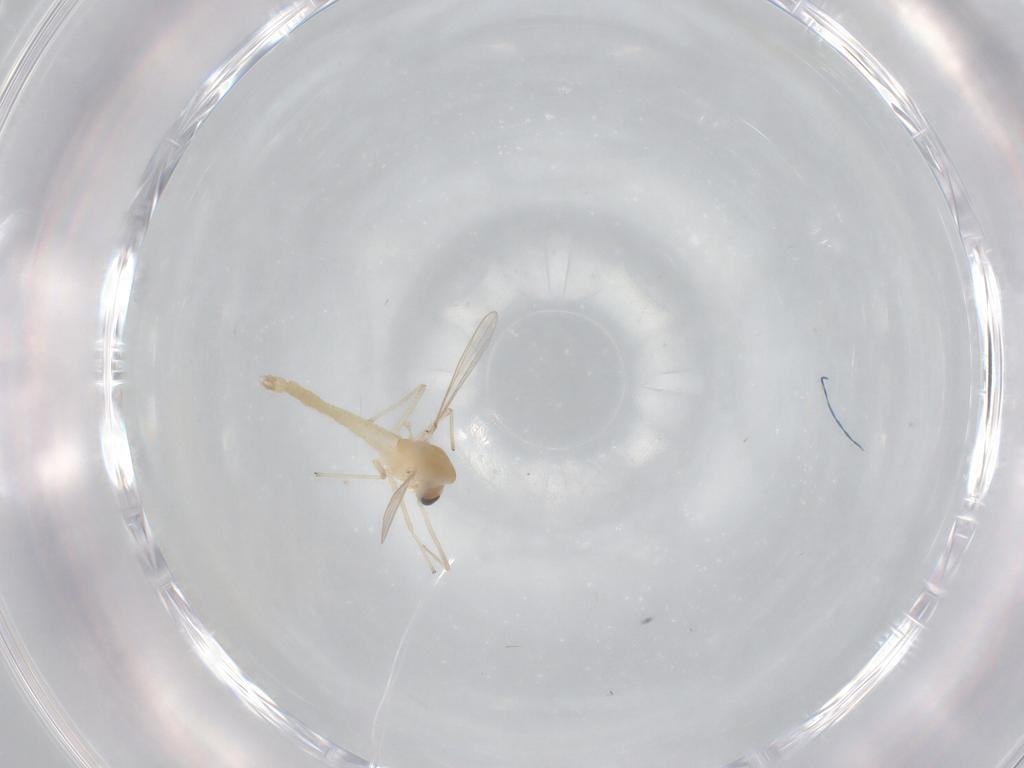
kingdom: Animalia
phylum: Arthropoda
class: Insecta
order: Diptera
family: Chironomidae
